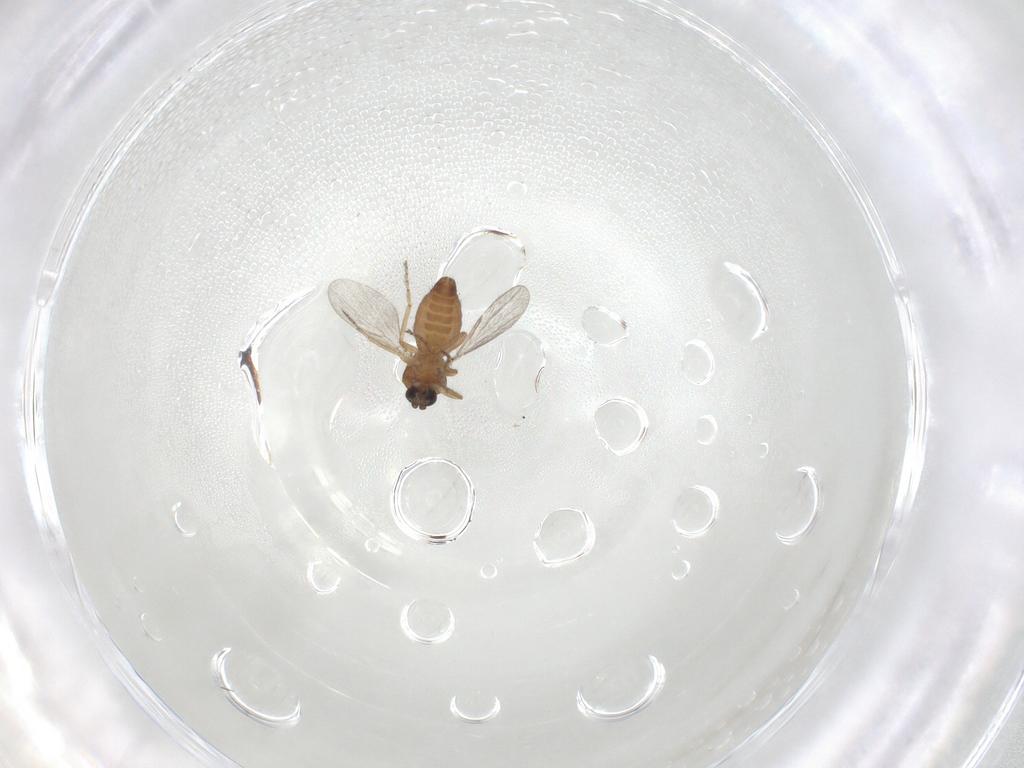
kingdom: Animalia
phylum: Arthropoda
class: Insecta
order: Diptera
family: Ceratopogonidae
